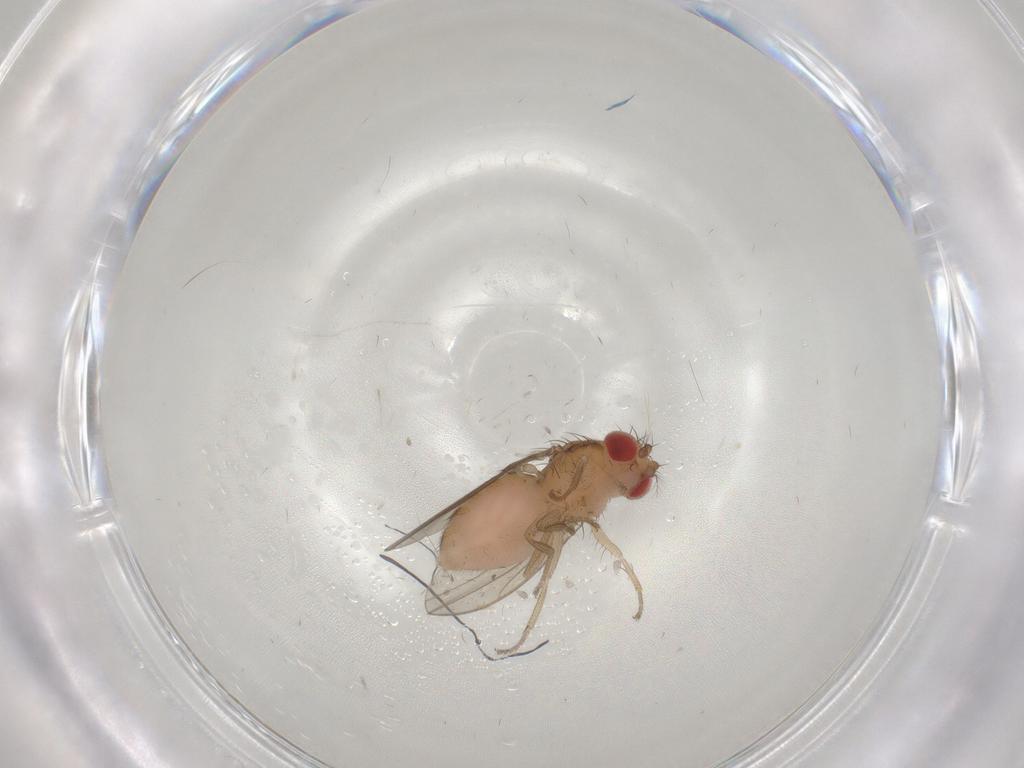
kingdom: Animalia
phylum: Arthropoda
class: Insecta
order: Diptera
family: Drosophilidae
